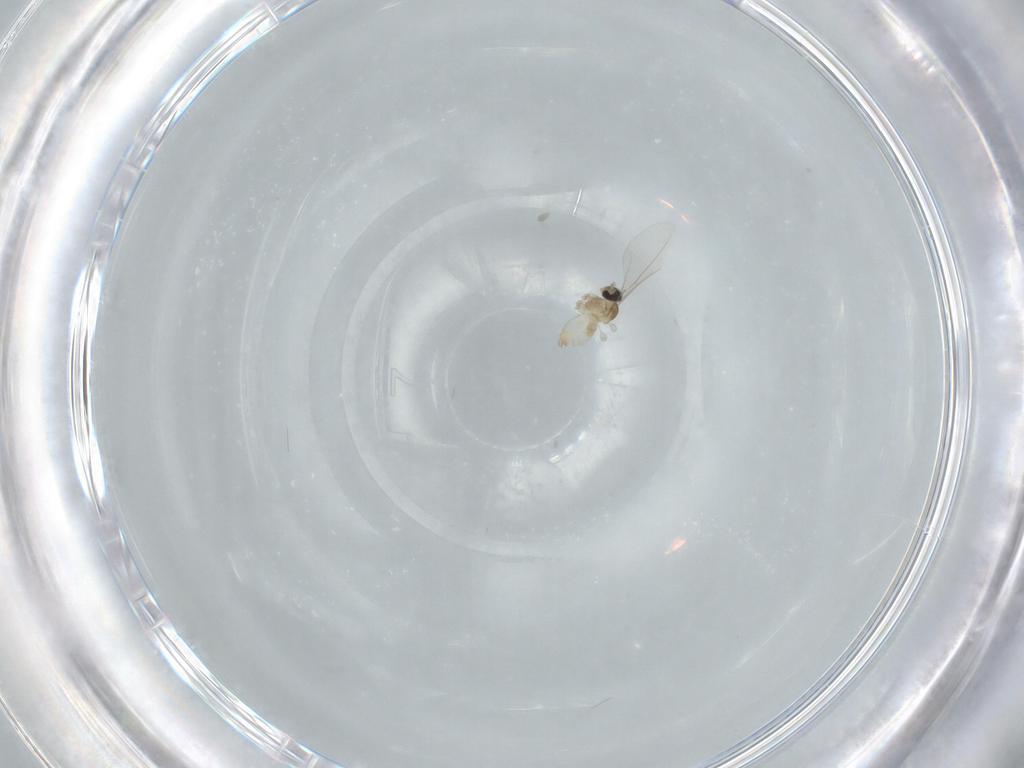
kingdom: Animalia
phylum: Arthropoda
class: Insecta
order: Diptera
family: Cecidomyiidae
